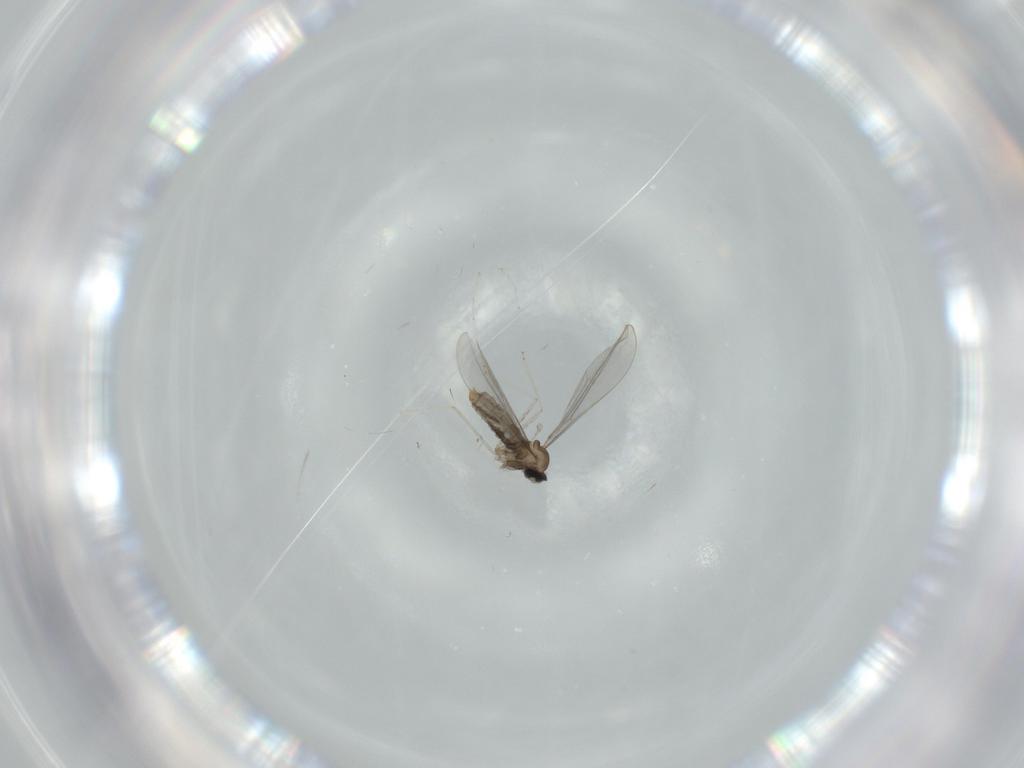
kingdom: Animalia
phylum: Arthropoda
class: Insecta
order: Diptera
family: Cecidomyiidae
